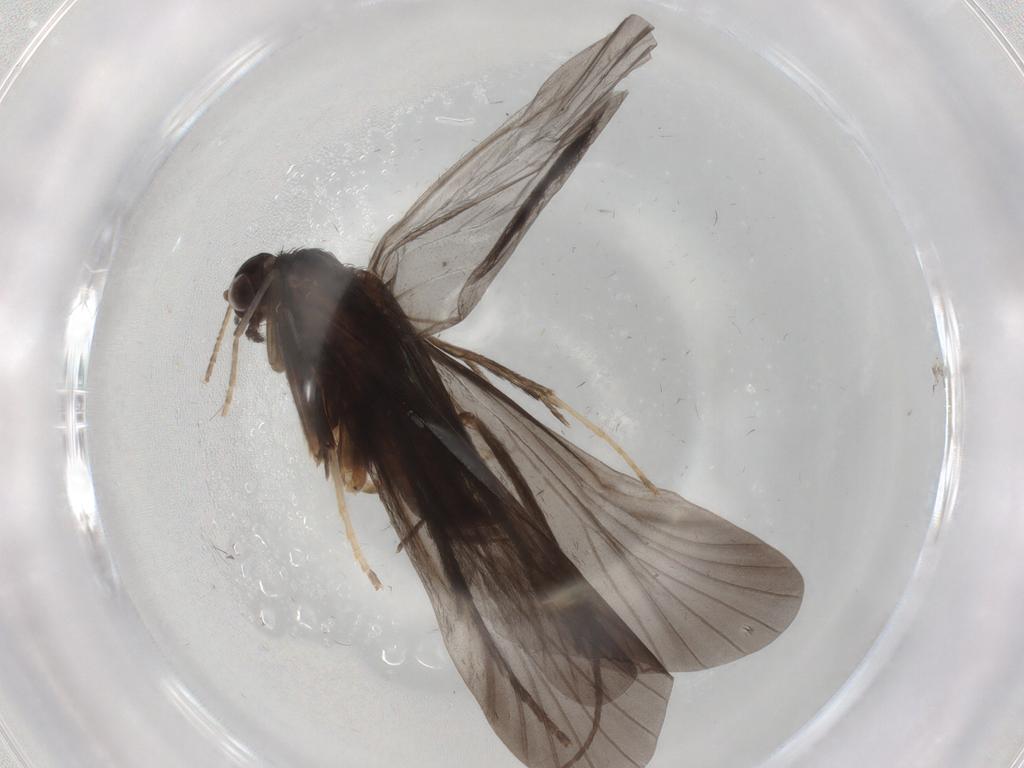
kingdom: Animalia
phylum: Arthropoda
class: Insecta
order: Trichoptera
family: Hydropsychidae
